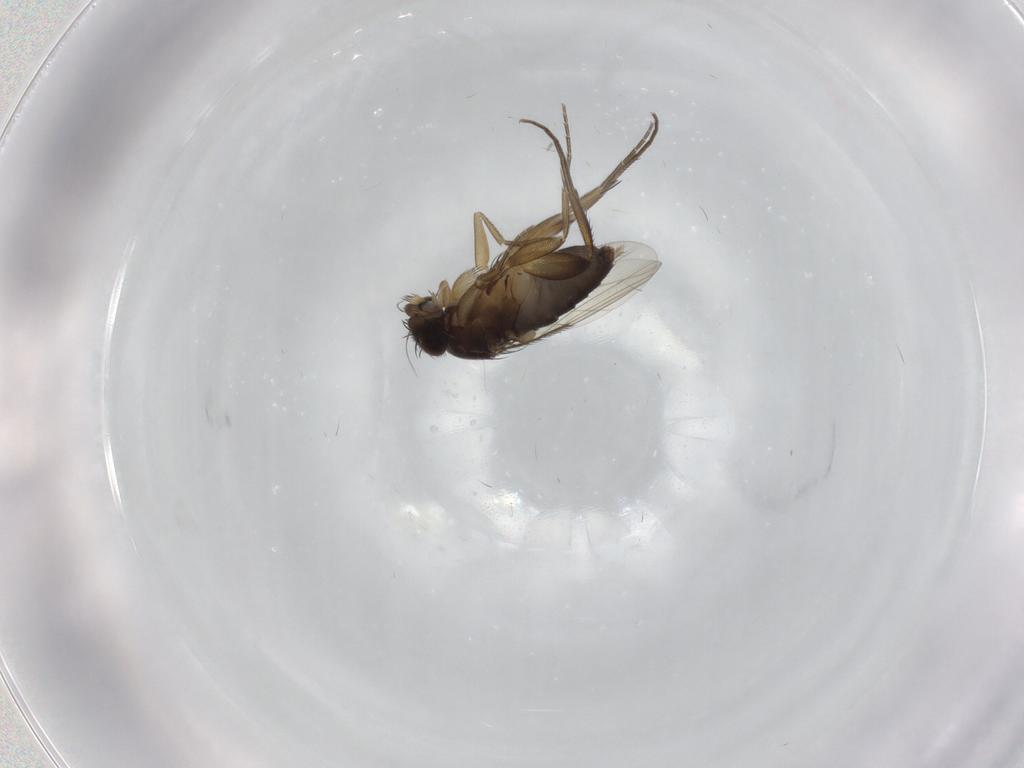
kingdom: Animalia
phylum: Arthropoda
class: Insecta
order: Diptera
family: Phoridae
